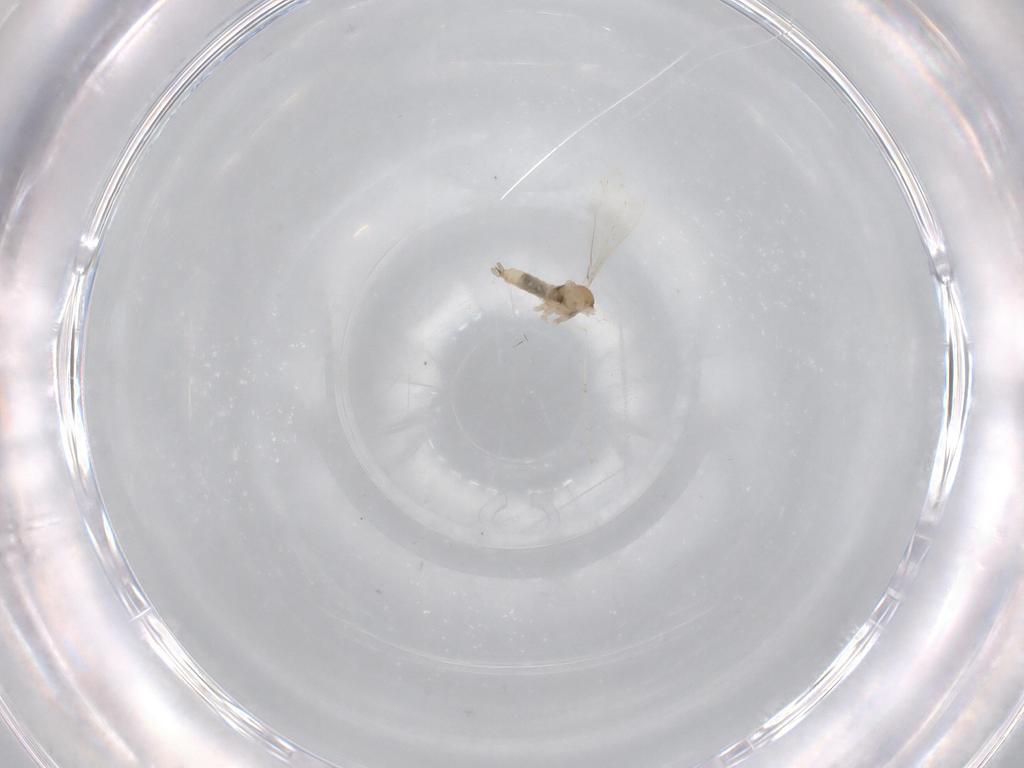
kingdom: Animalia
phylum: Arthropoda
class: Insecta
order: Diptera
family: Cecidomyiidae
